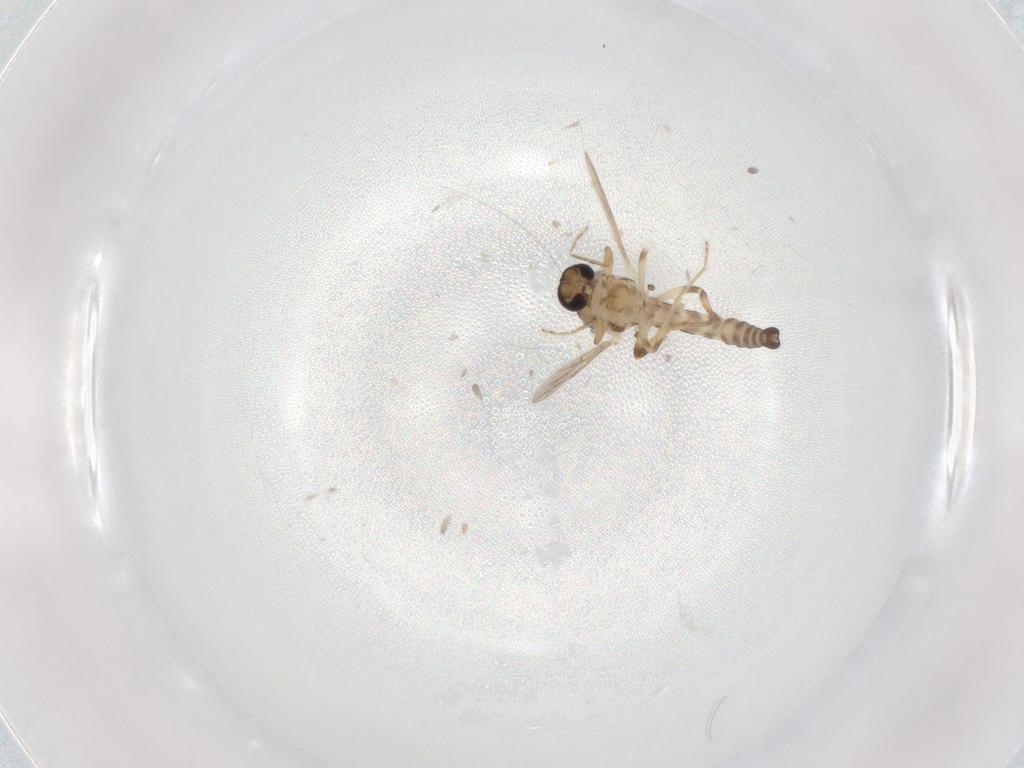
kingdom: Animalia
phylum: Arthropoda
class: Insecta
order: Diptera
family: Ceratopogonidae
